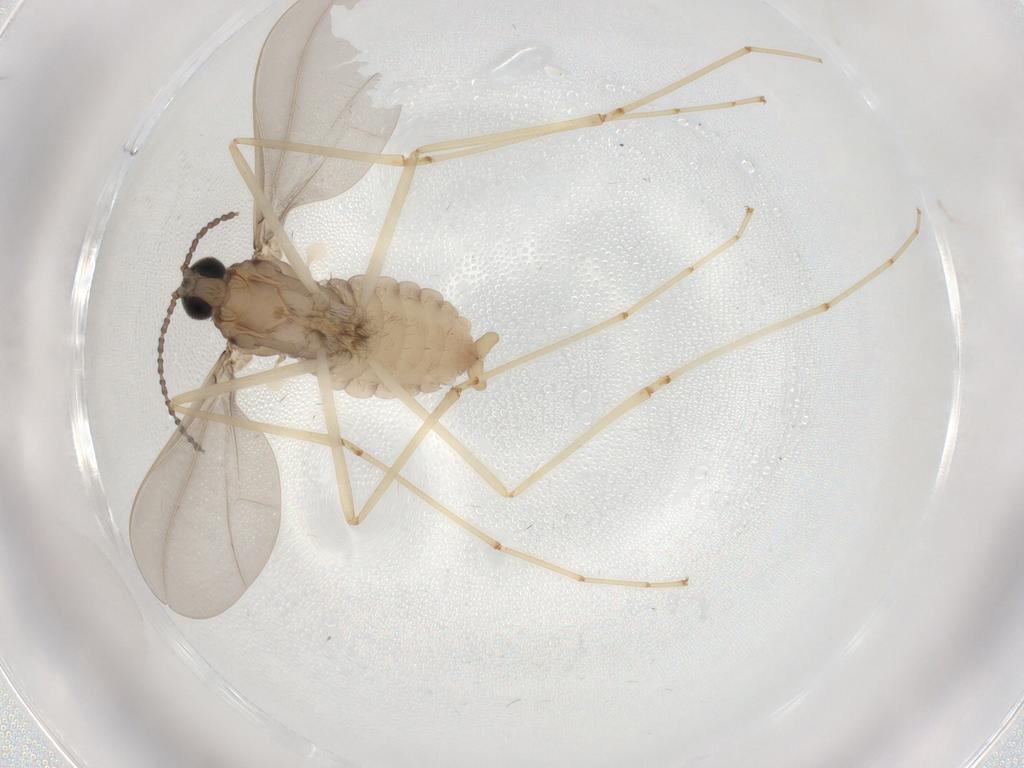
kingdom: Animalia
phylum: Arthropoda
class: Insecta
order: Diptera
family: Cecidomyiidae
